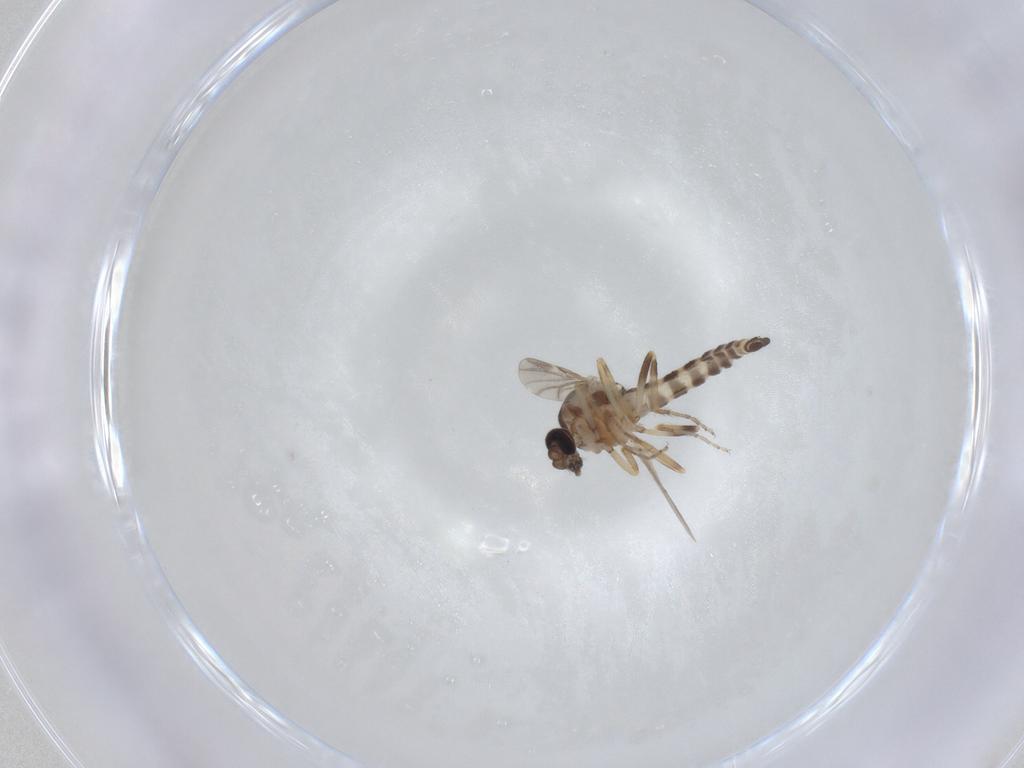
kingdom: Animalia
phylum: Arthropoda
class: Insecta
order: Diptera
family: Ceratopogonidae
